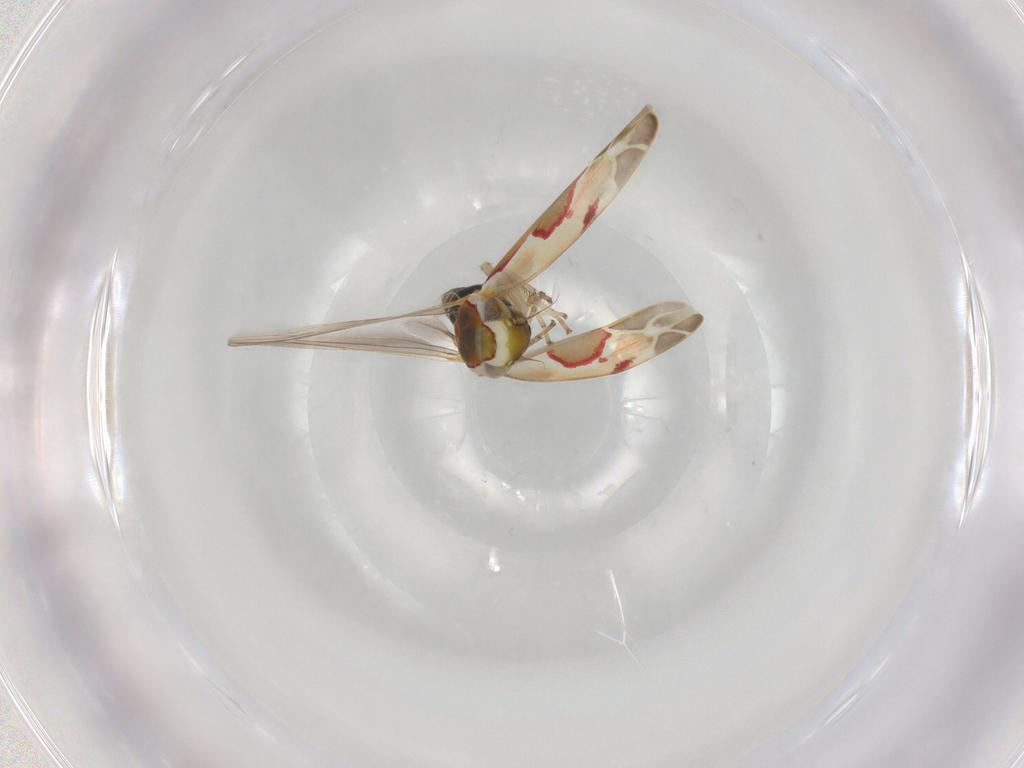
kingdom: Animalia
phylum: Arthropoda
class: Insecta
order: Hemiptera
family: Cicadellidae
